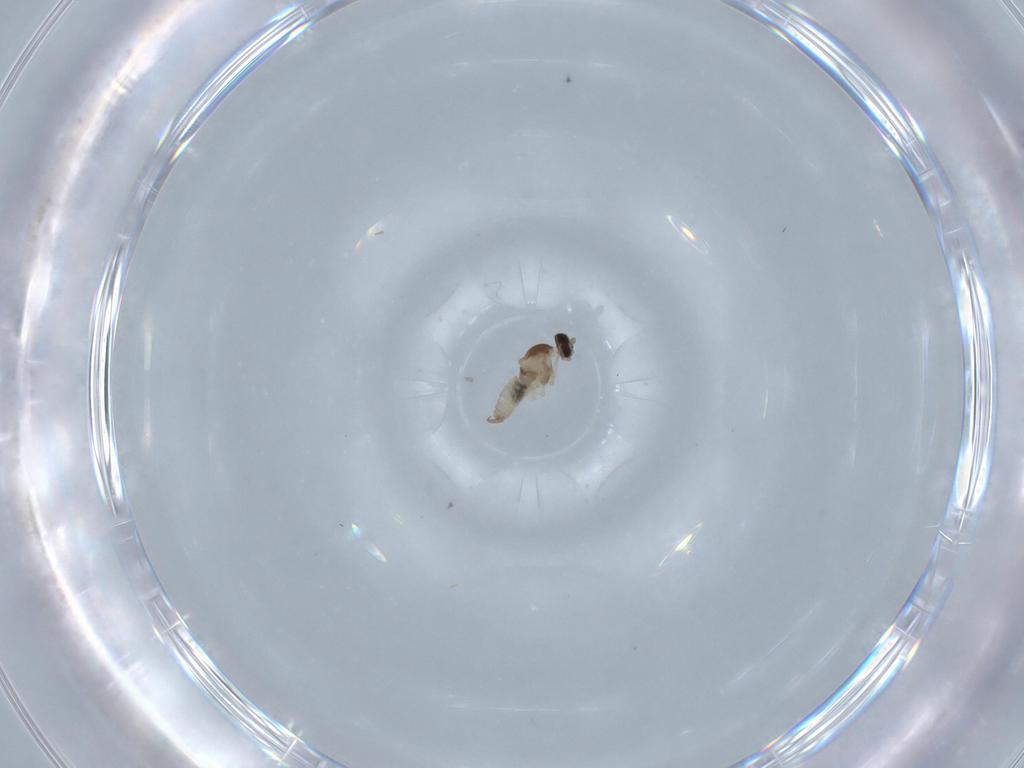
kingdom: Animalia
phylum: Arthropoda
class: Insecta
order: Diptera
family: Cecidomyiidae
